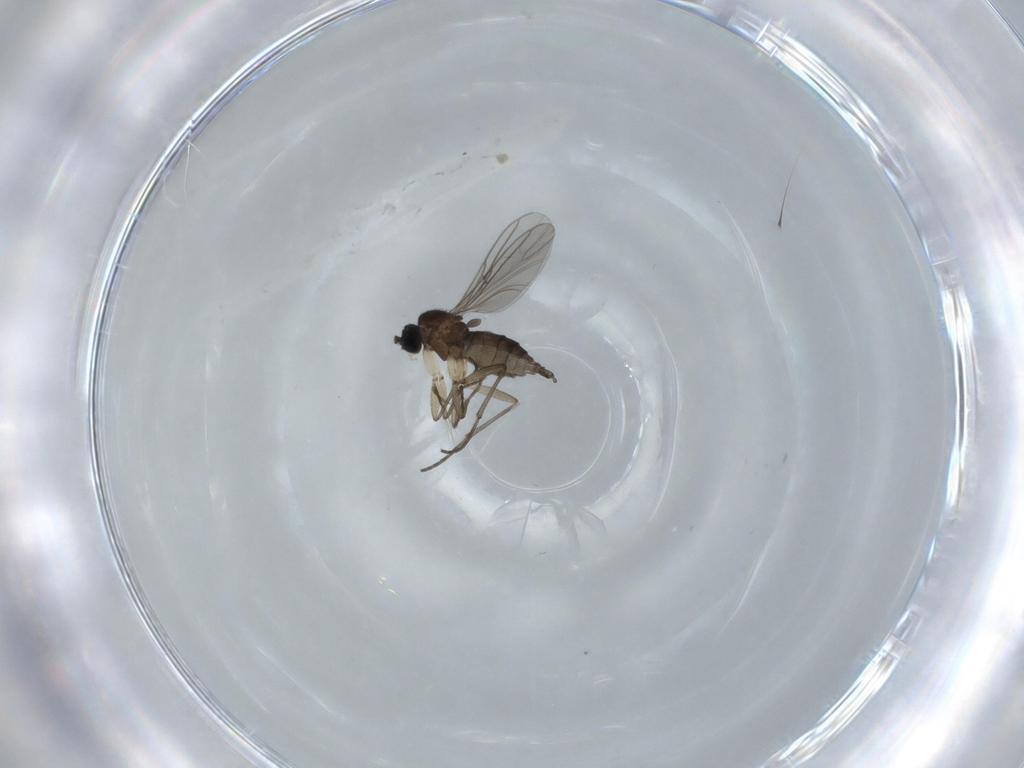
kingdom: Animalia
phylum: Arthropoda
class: Insecta
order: Diptera
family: Sciaridae
